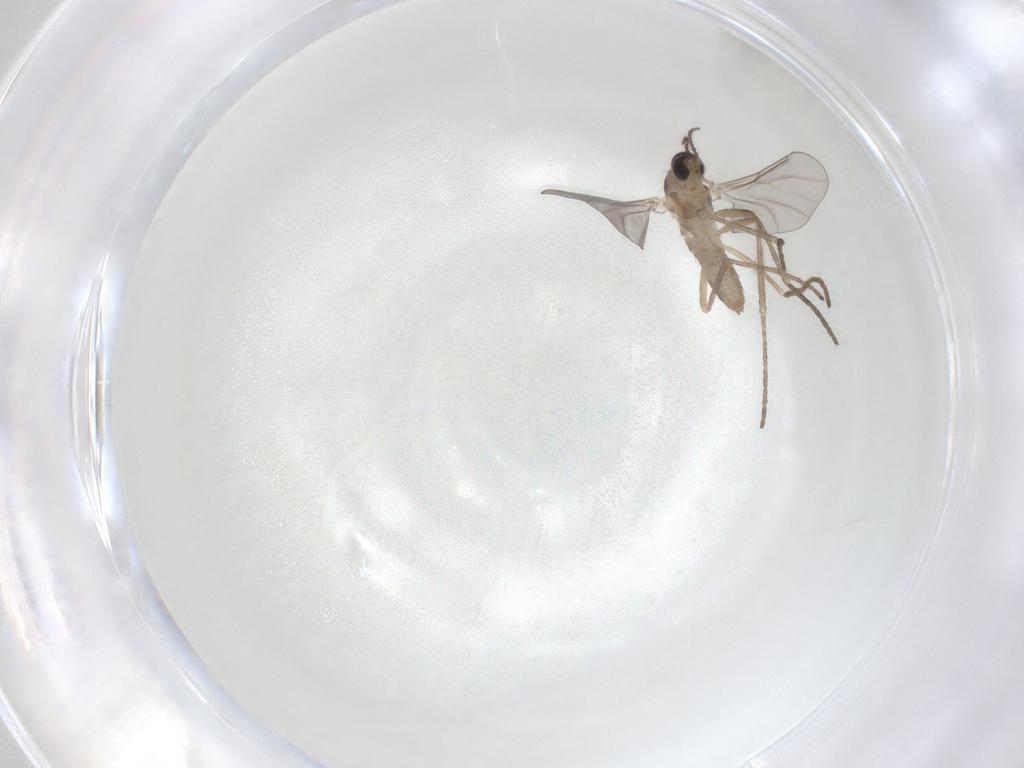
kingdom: Animalia
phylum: Arthropoda
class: Insecta
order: Diptera
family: Cecidomyiidae
